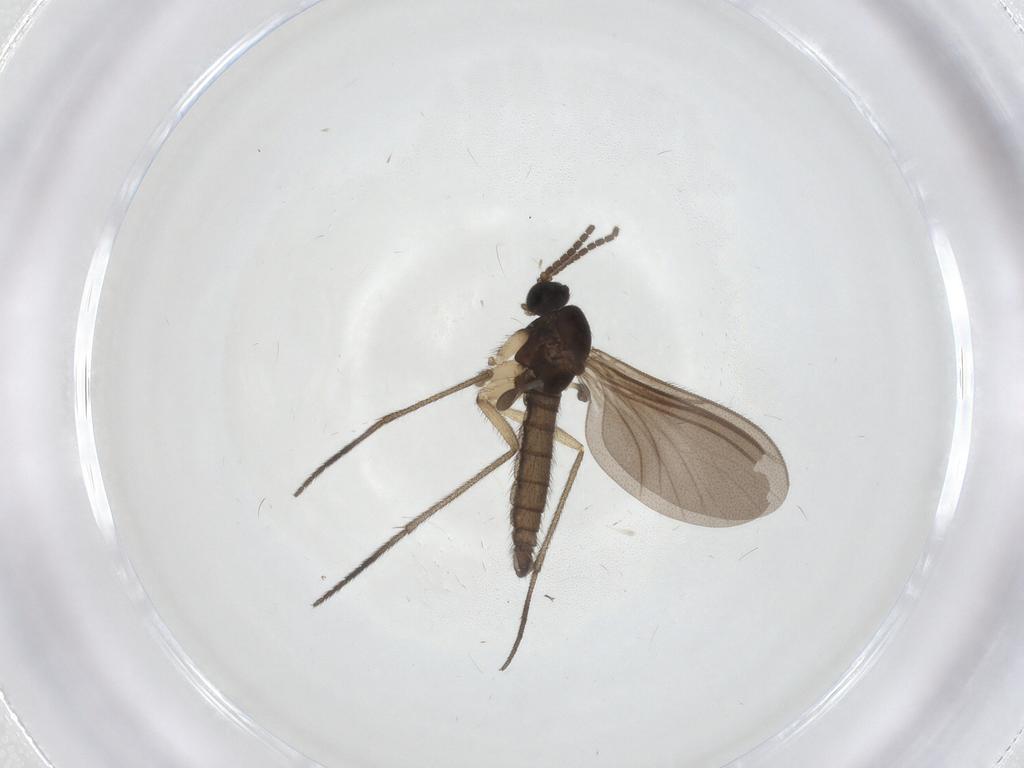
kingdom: Animalia
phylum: Arthropoda
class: Insecta
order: Diptera
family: Sciaridae
